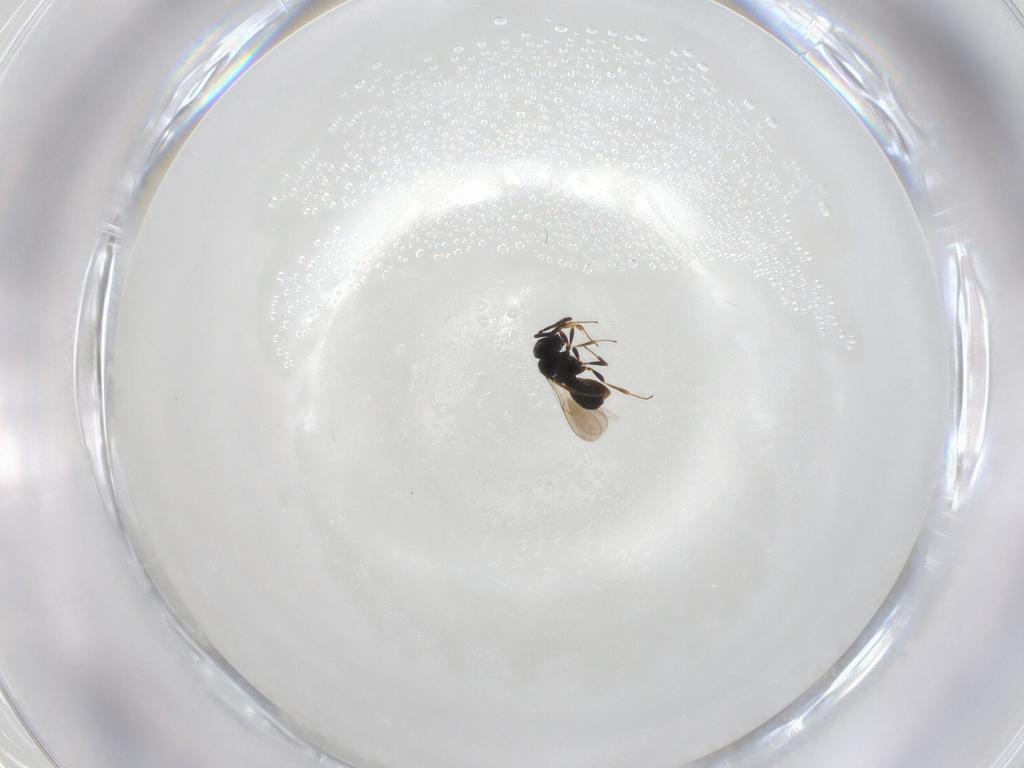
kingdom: Animalia
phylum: Arthropoda
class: Insecta
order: Hymenoptera
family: Scelionidae
